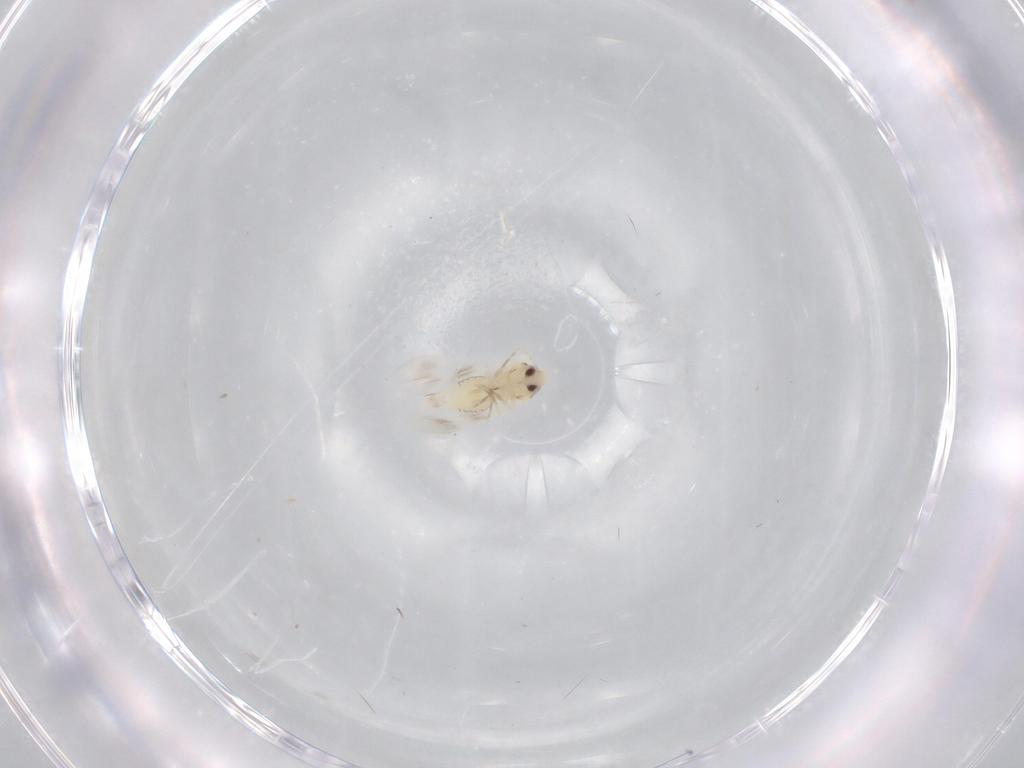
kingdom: Animalia
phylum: Arthropoda
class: Insecta
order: Hemiptera
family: Aleyrodidae
